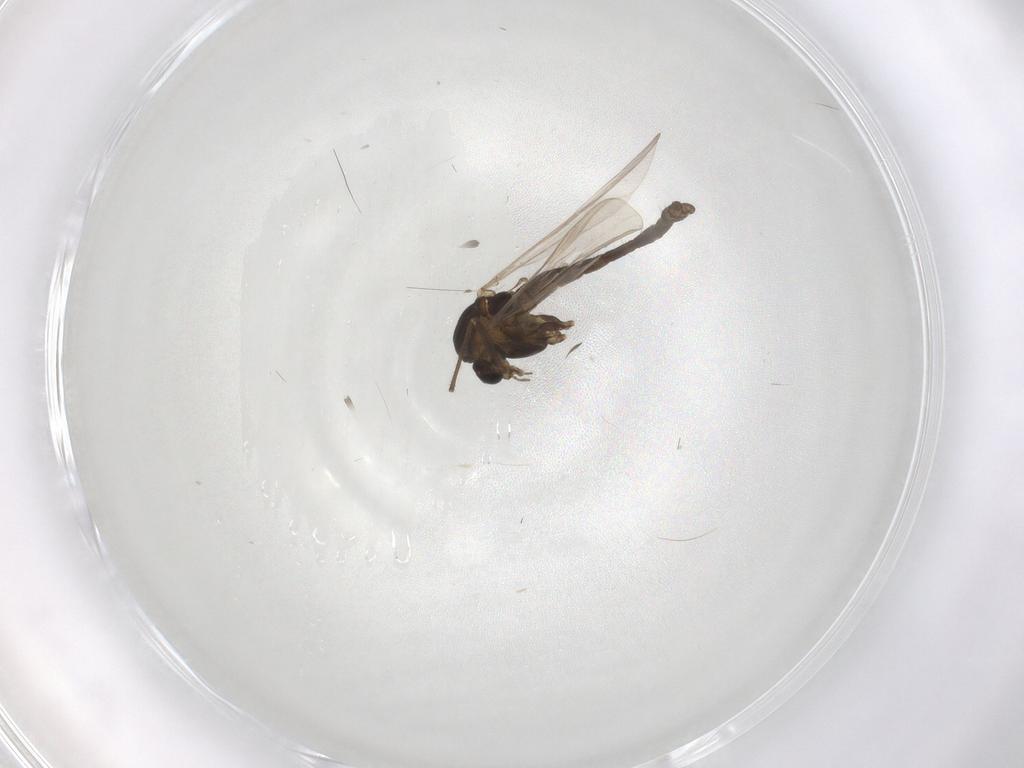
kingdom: Animalia
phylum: Arthropoda
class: Insecta
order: Diptera
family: Chironomidae
